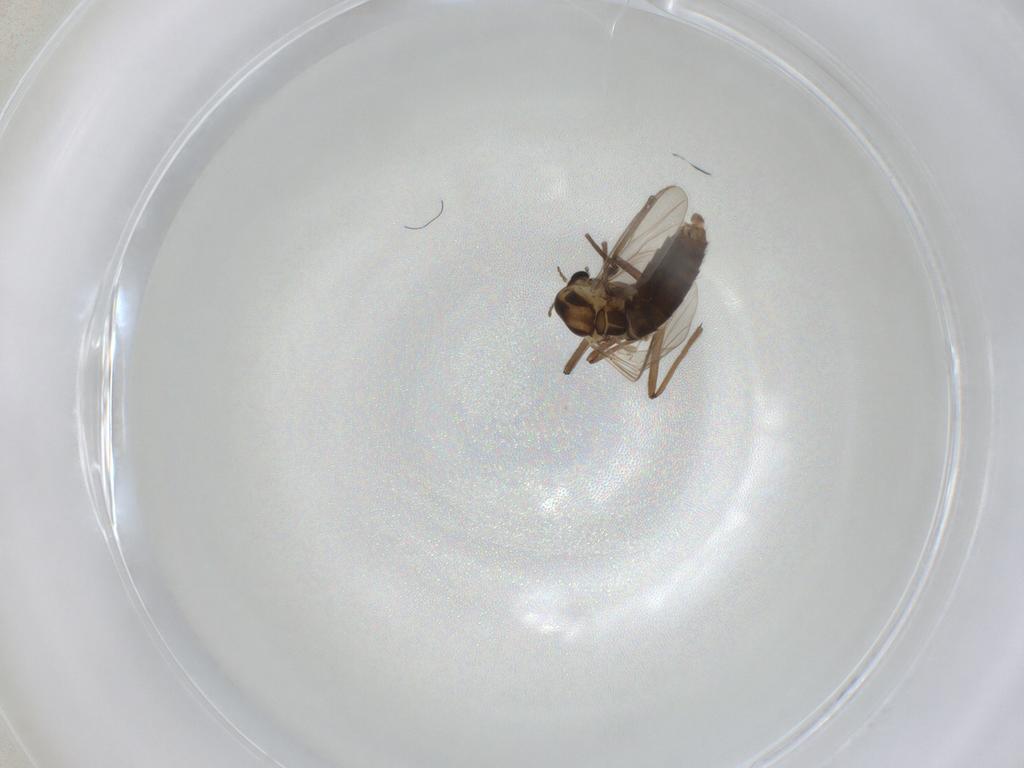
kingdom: Animalia
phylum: Arthropoda
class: Insecta
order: Diptera
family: Chironomidae
